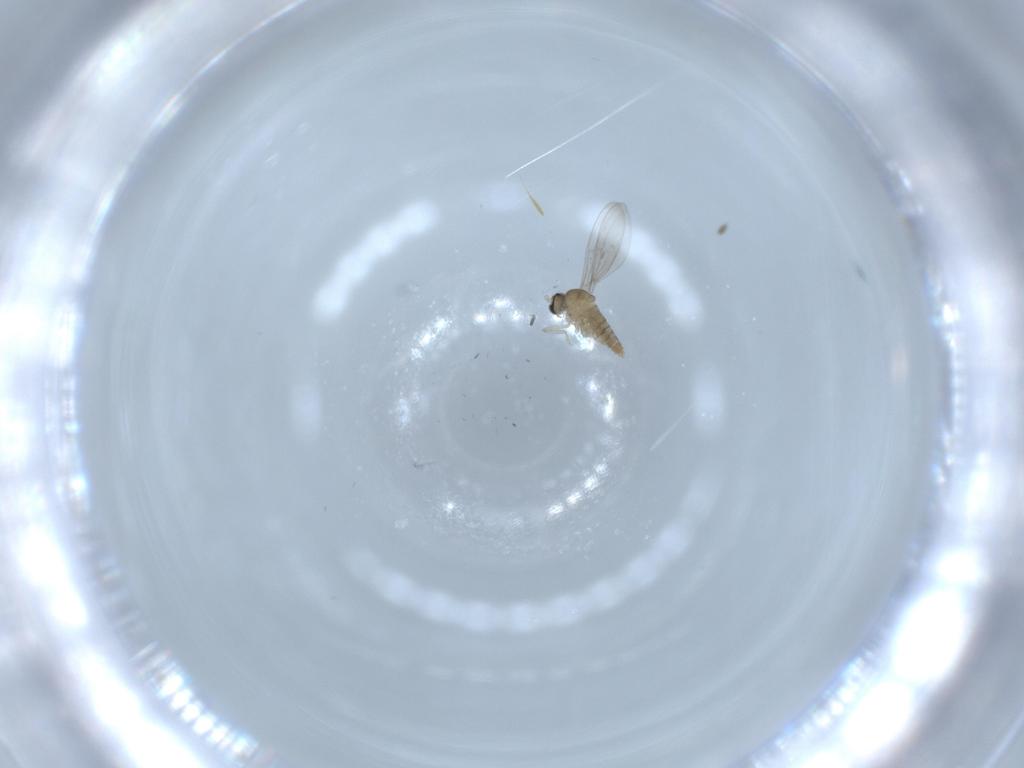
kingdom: Animalia
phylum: Arthropoda
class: Insecta
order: Diptera
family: Cecidomyiidae
